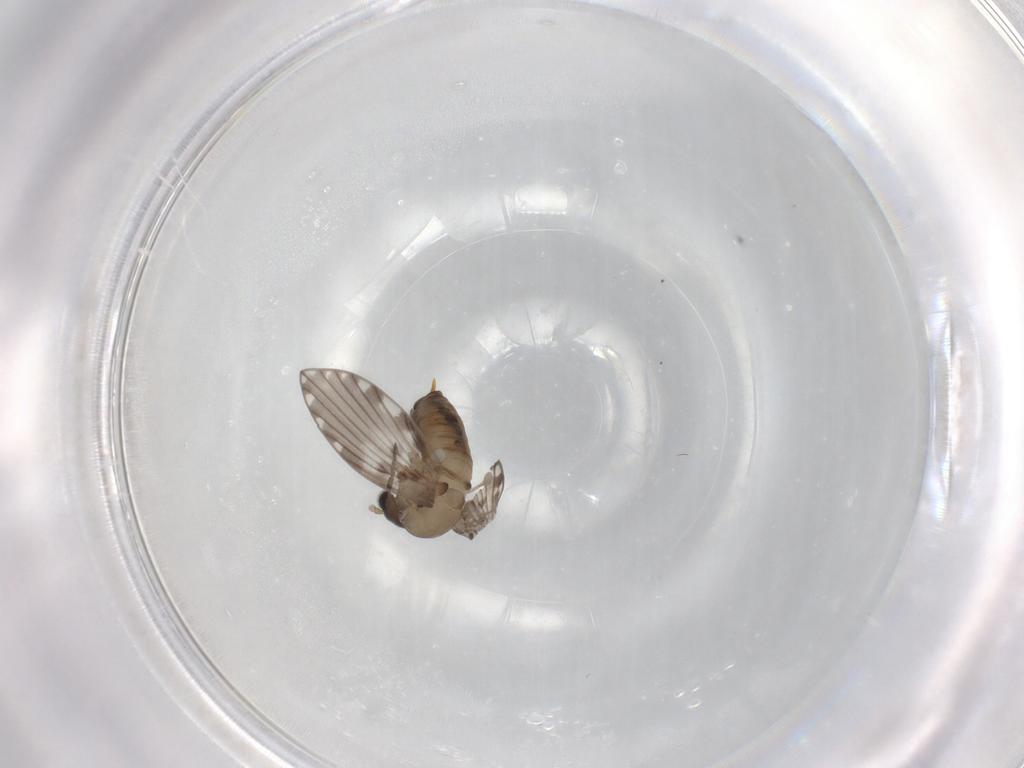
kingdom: Animalia
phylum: Arthropoda
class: Insecta
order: Diptera
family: Psychodidae
